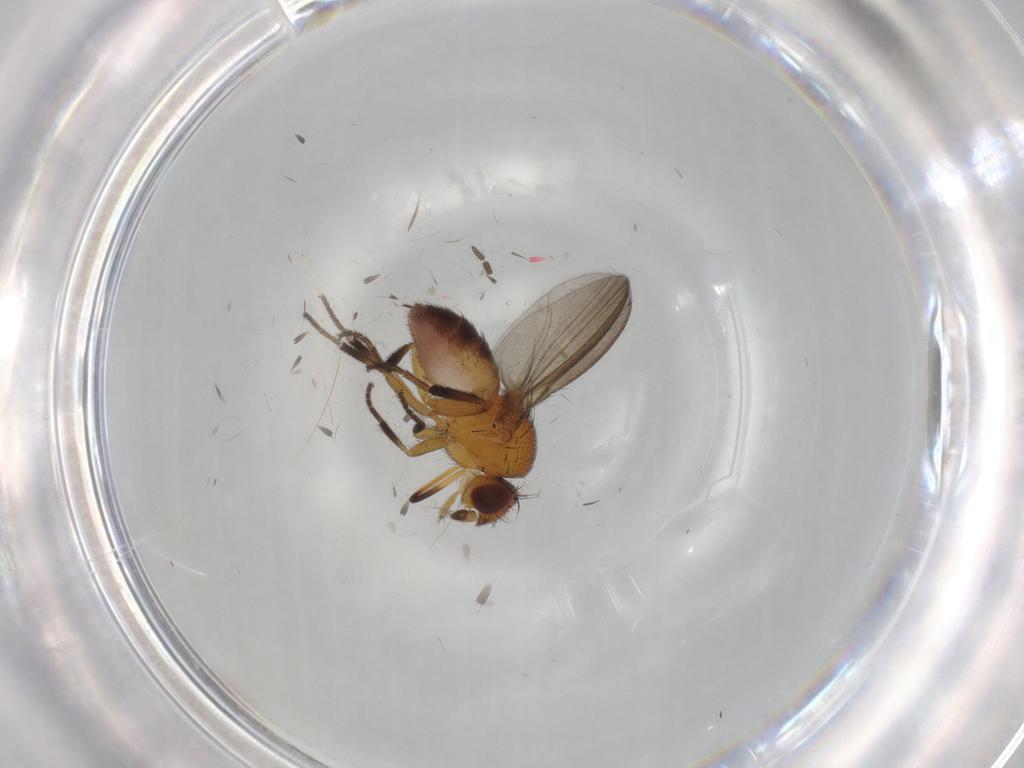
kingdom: Animalia
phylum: Arthropoda
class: Insecta
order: Diptera
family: Milichiidae
